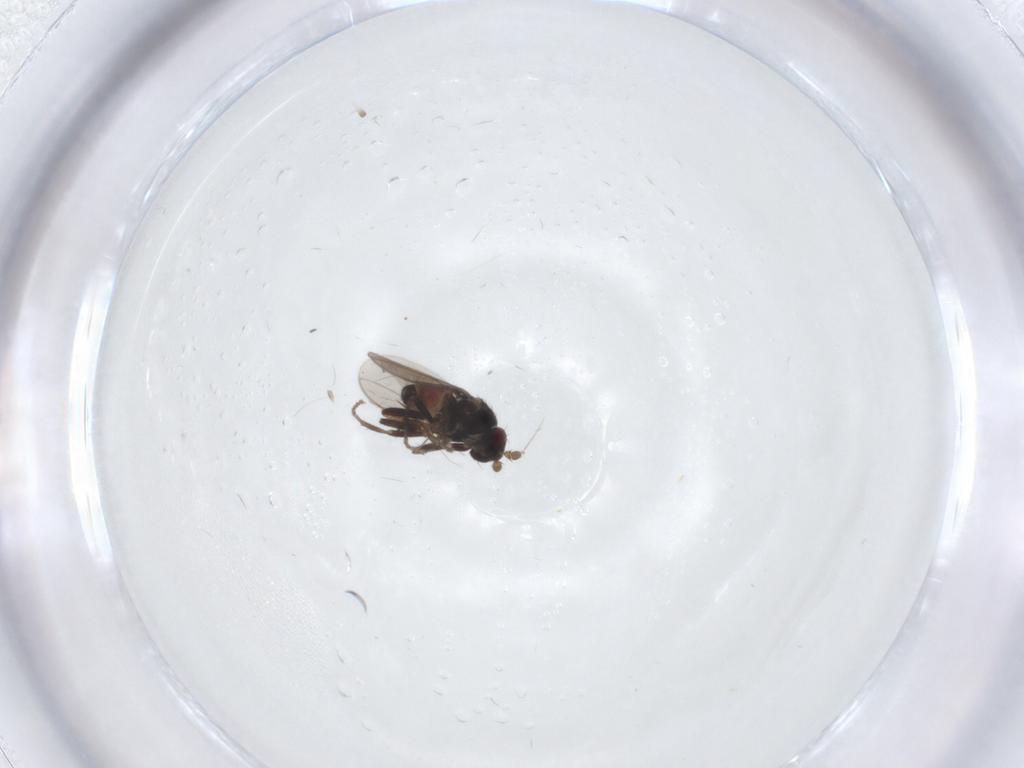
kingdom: Animalia
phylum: Arthropoda
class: Insecta
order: Diptera
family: Sphaeroceridae
